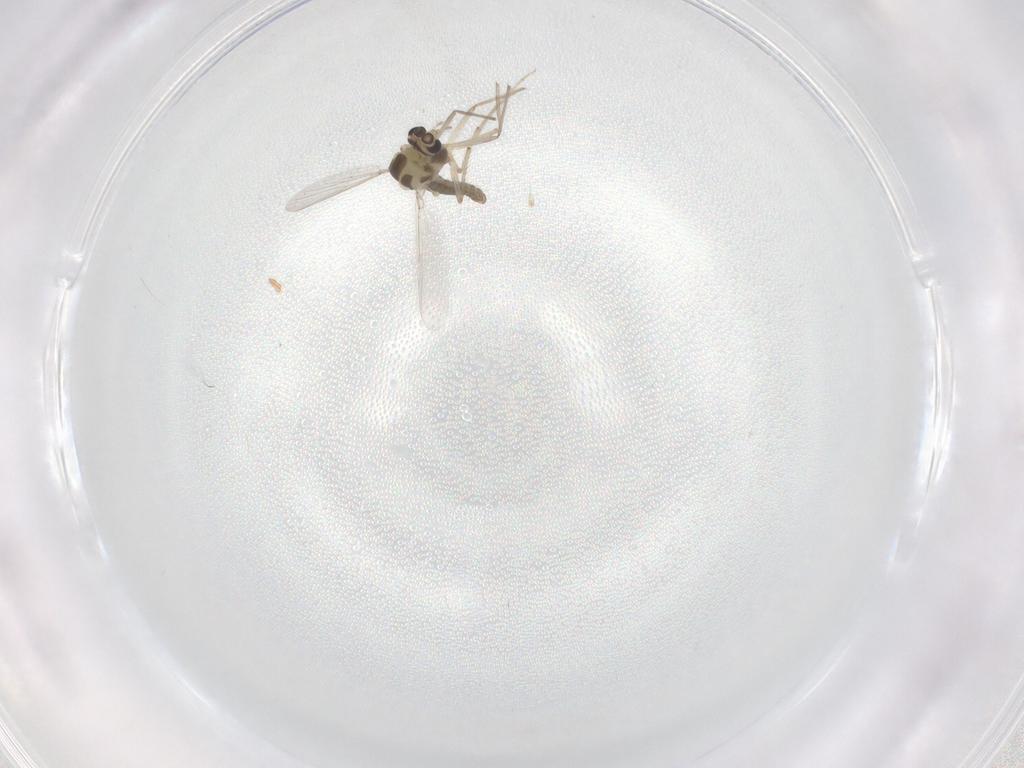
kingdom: Animalia
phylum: Arthropoda
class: Insecta
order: Diptera
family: Chironomidae
